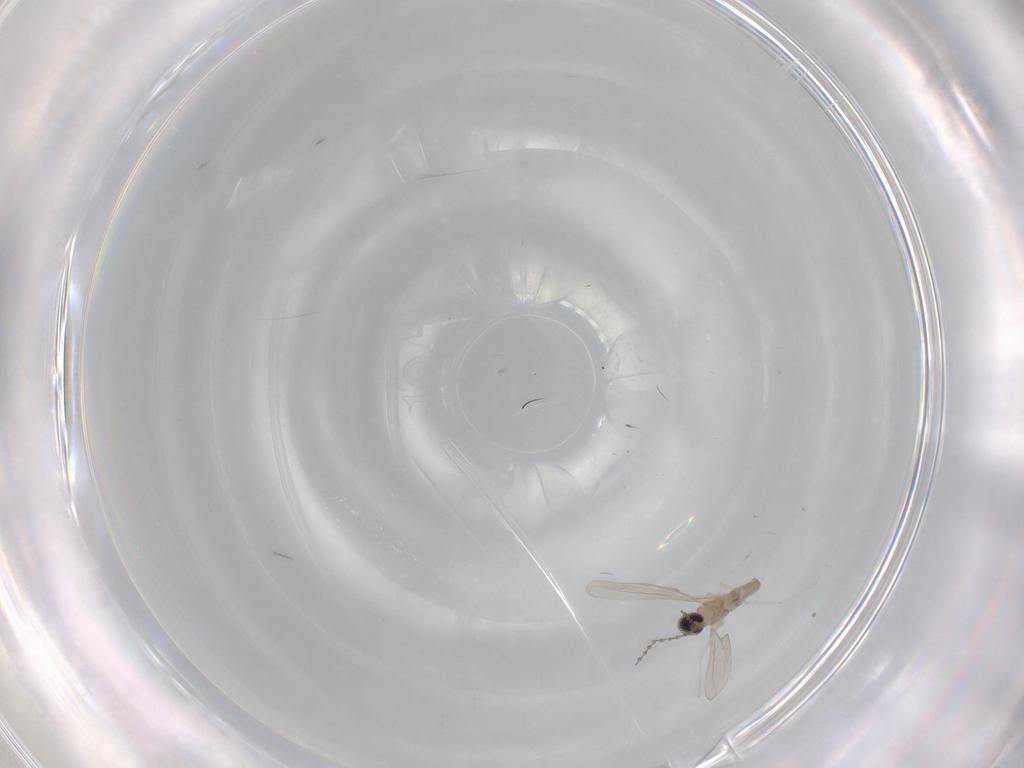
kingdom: Animalia
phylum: Arthropoda
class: Insecta
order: Diptera
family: Cecidomyiidae
